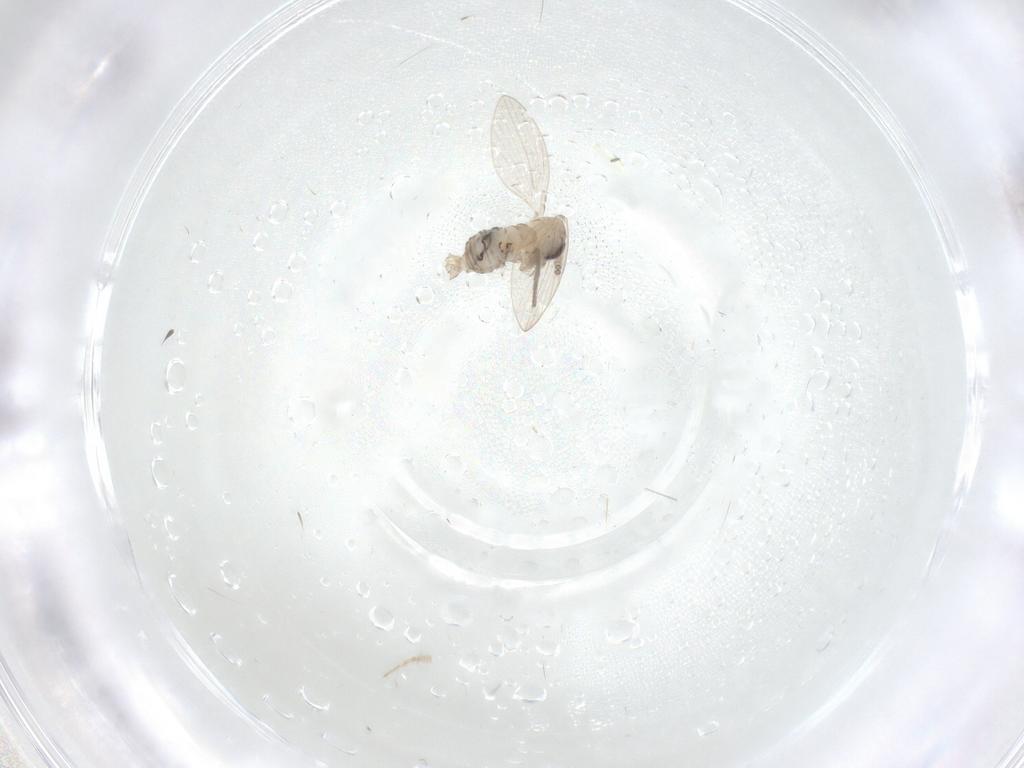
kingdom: Animalia
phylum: Arthropoda
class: Insecta
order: Diptera
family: Psychodidae
